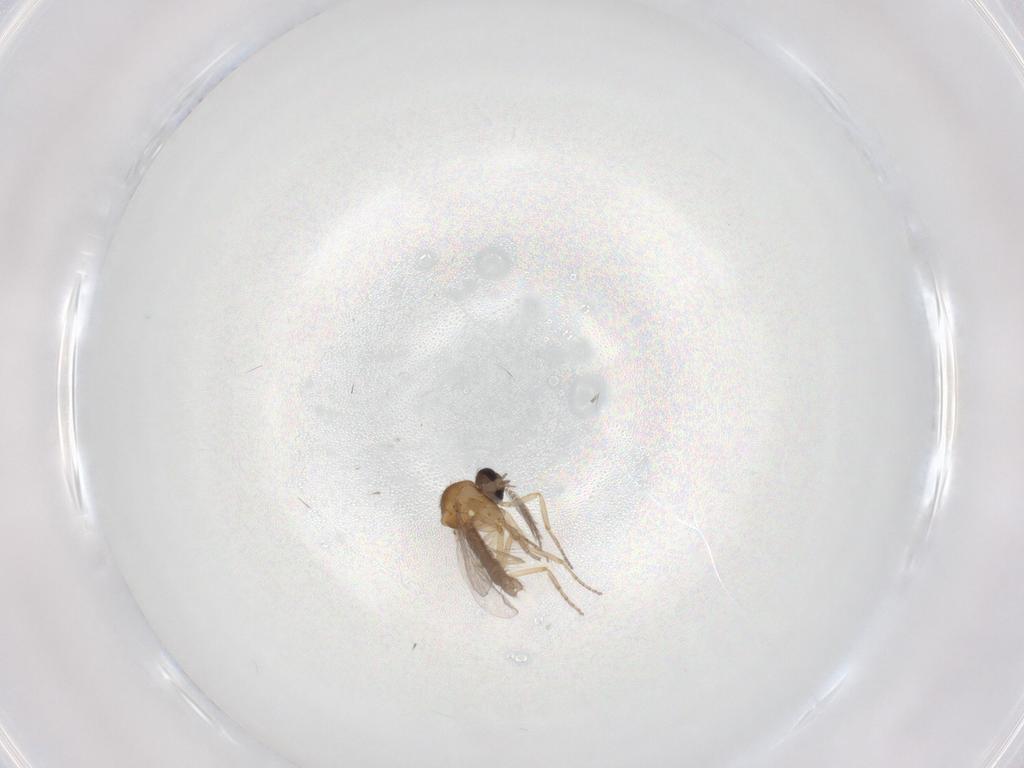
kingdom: Animalia
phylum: Arthropoda
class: Insecta
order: Diptera
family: Ceratopogonidae
